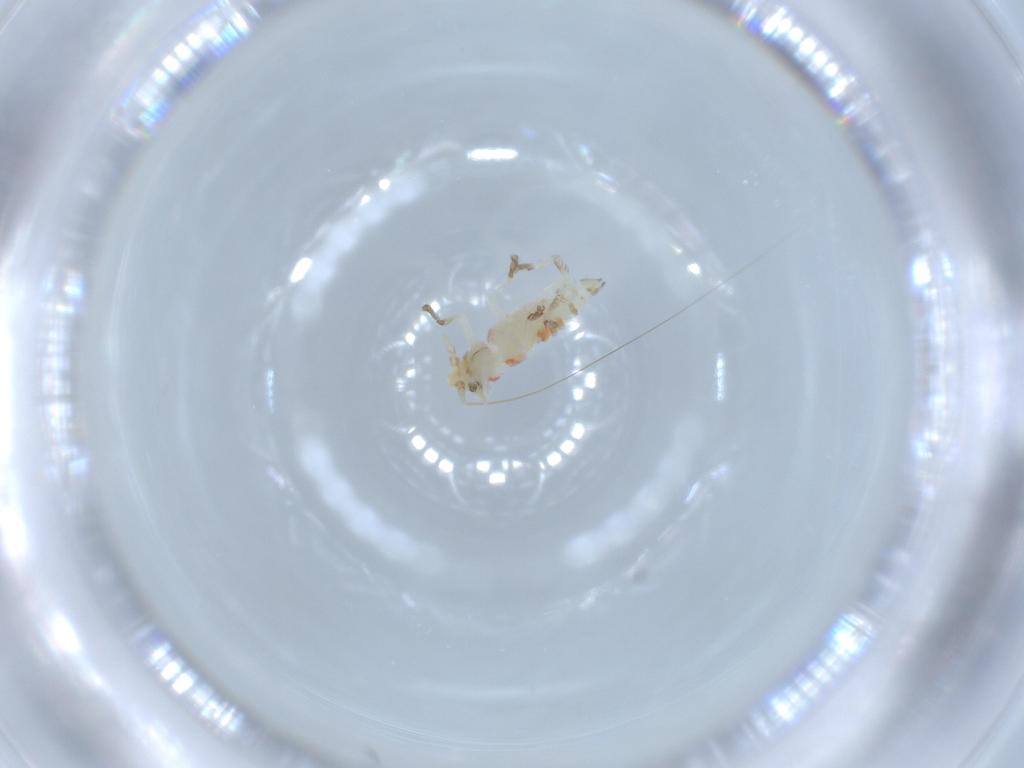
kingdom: Animalia
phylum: Arthropoda
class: Insecta
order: Hemiptera
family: Cicadellidae
